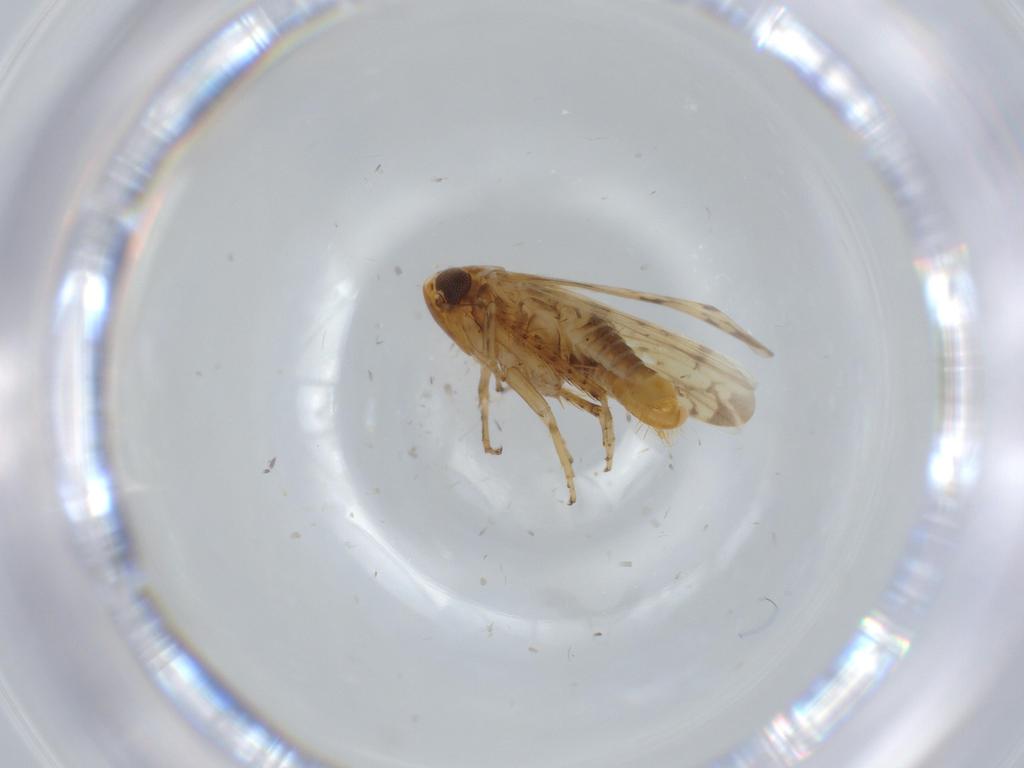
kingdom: Animalia
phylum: Arthropoda
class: Insecta
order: Hemiptera
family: Cicadellidae
